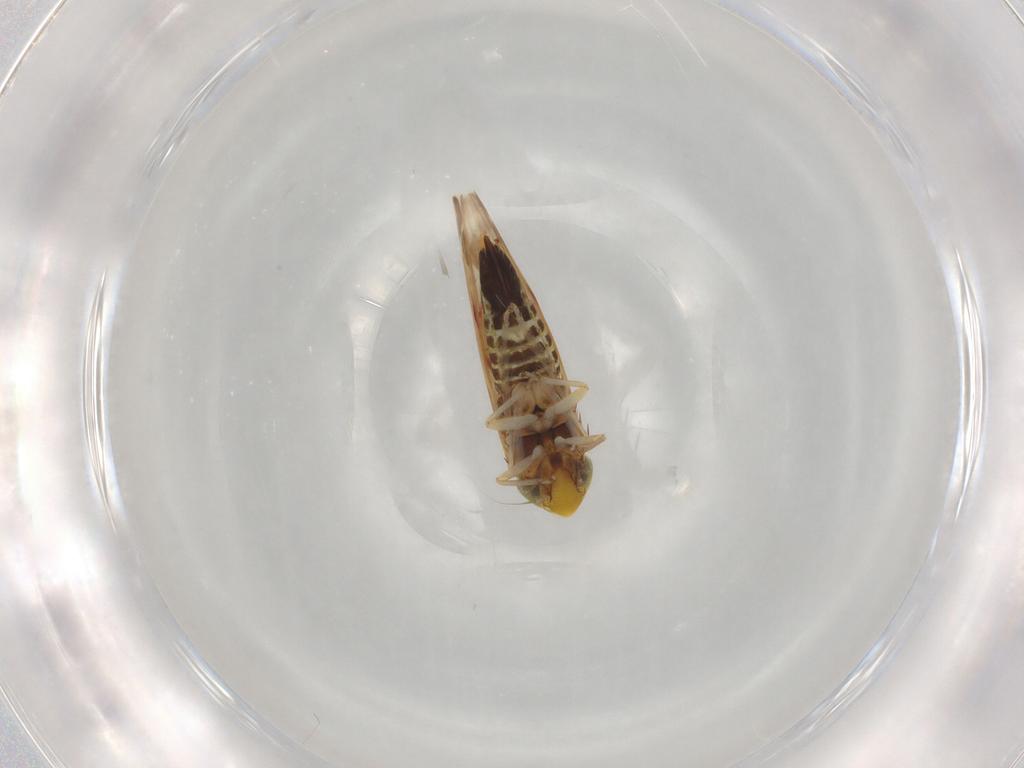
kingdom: Animalia
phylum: Arthropoda
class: Insecta
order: Hemiptera
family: Cicadellidae
